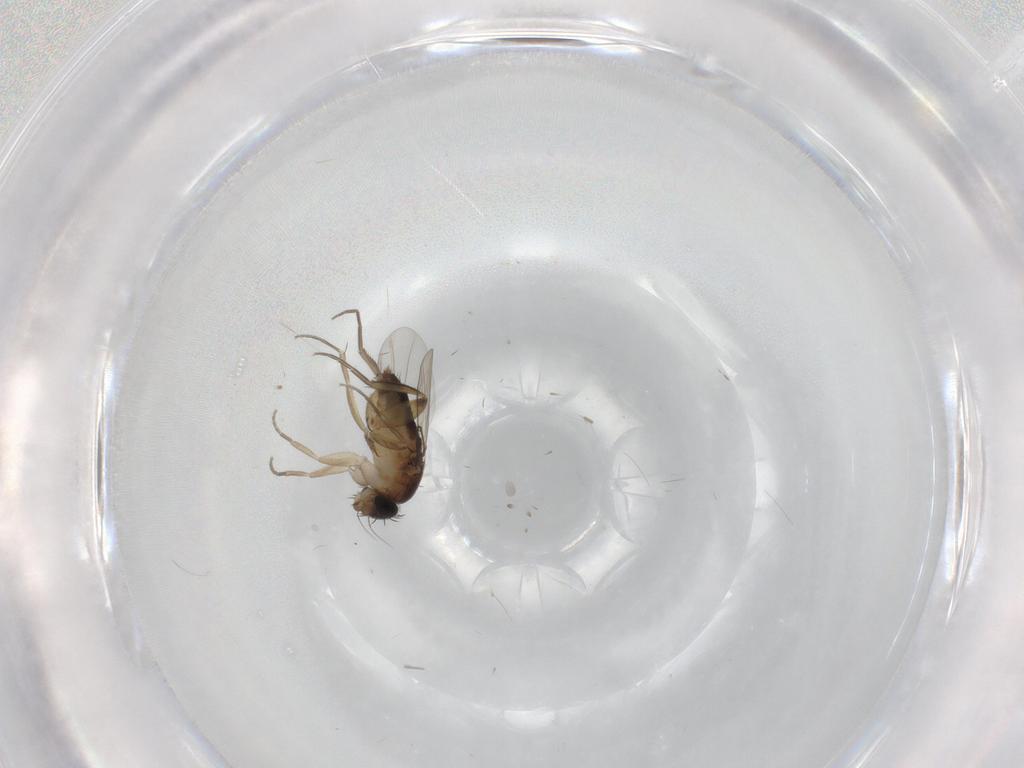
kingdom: Animalia
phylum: Arthropoda
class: Insecta
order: Diptera
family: Phoridae
